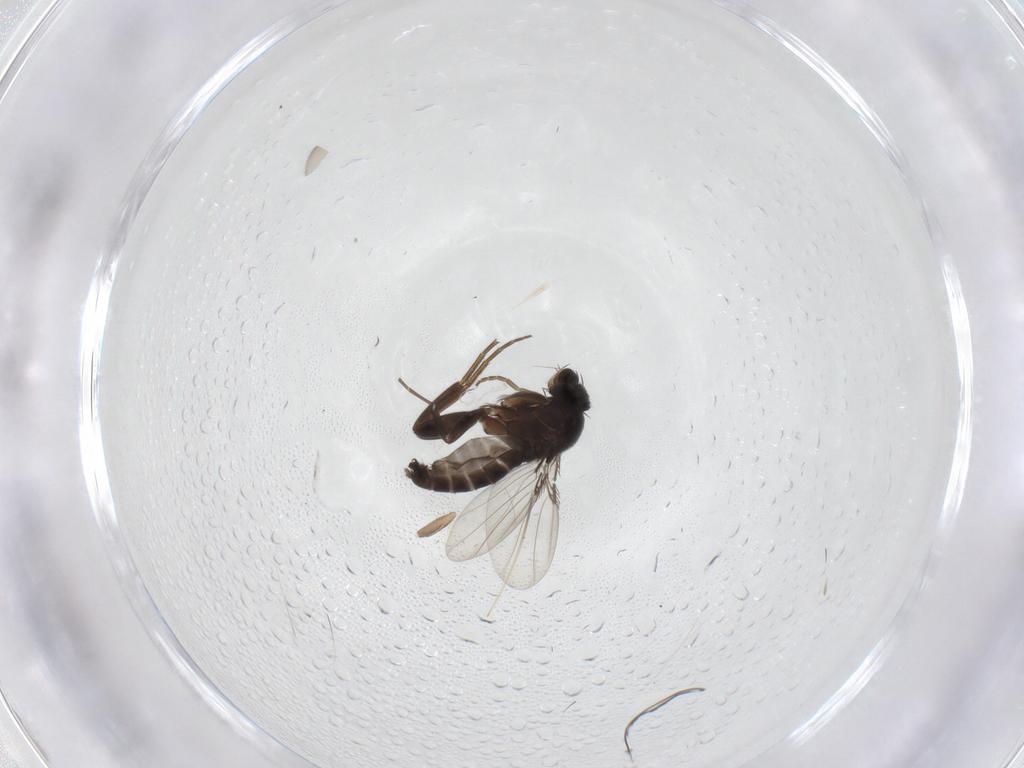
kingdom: Animalia
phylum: Arthropoda
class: Insecta
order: Diptera
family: Phoridae
